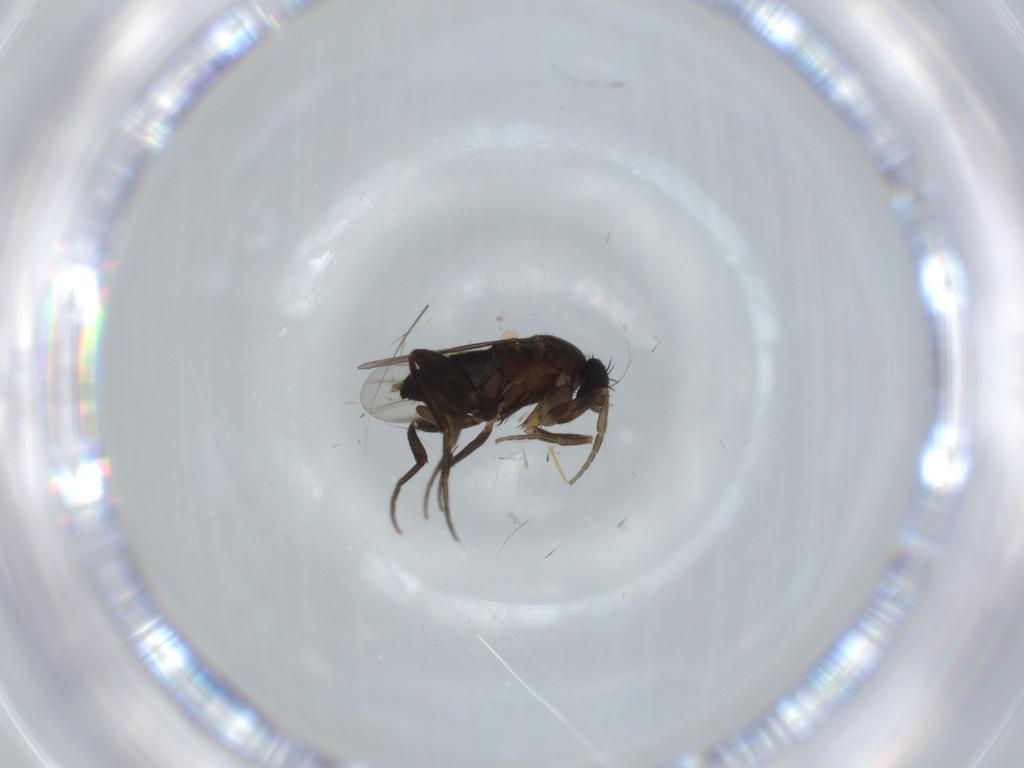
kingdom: Animalia
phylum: Arthropoda
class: Insecta
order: Diptera
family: Phoridae
